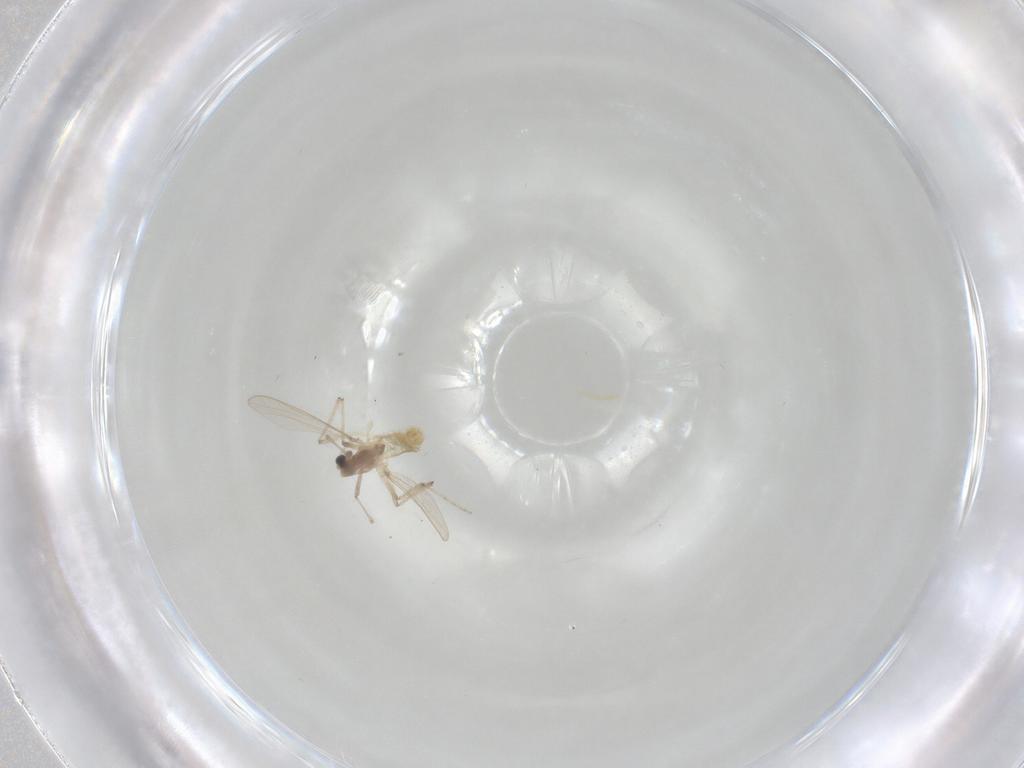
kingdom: Animalia
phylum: Arthropoda
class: Insecta
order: Diptera
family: Chironomidae
